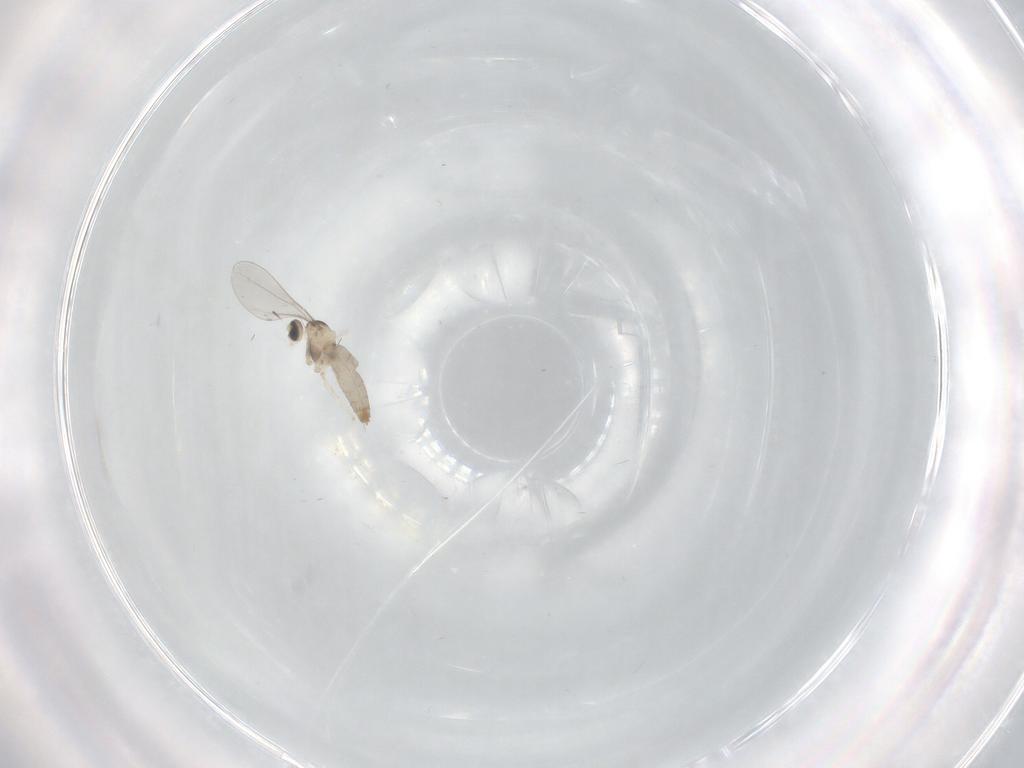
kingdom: Animalia
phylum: Arthropoda
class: Insecta
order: Diptera
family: Cecidomyiidae
